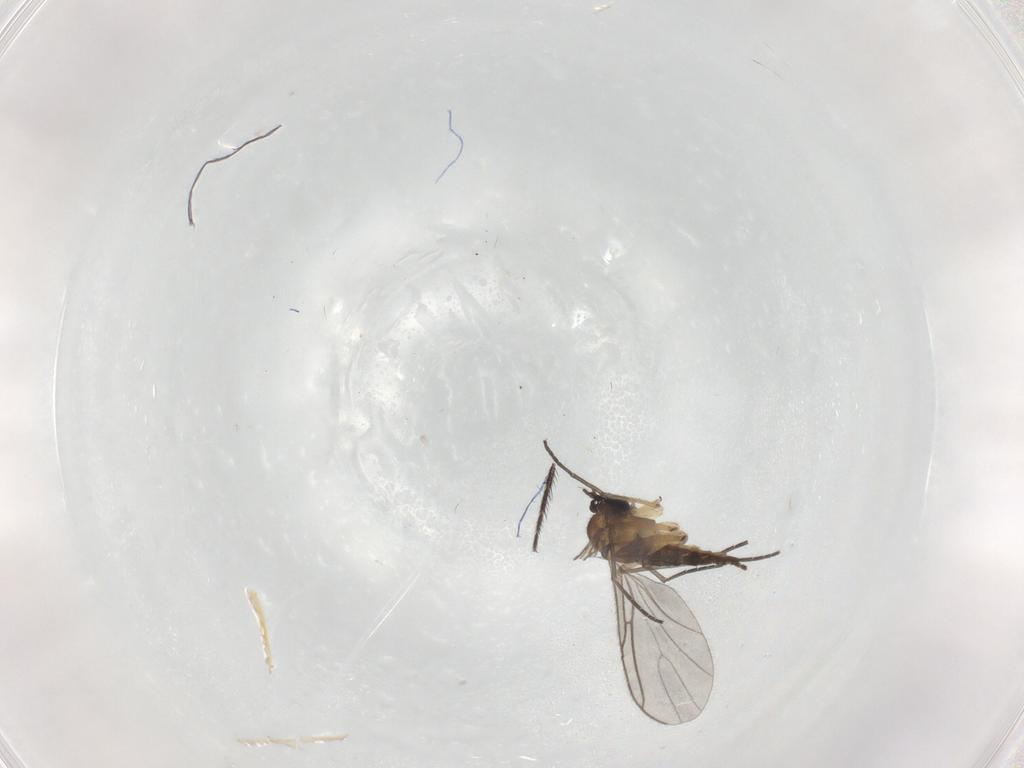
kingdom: Animalia
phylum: Arthropoda
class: Insecta
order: Diptera
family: Sciaridae
